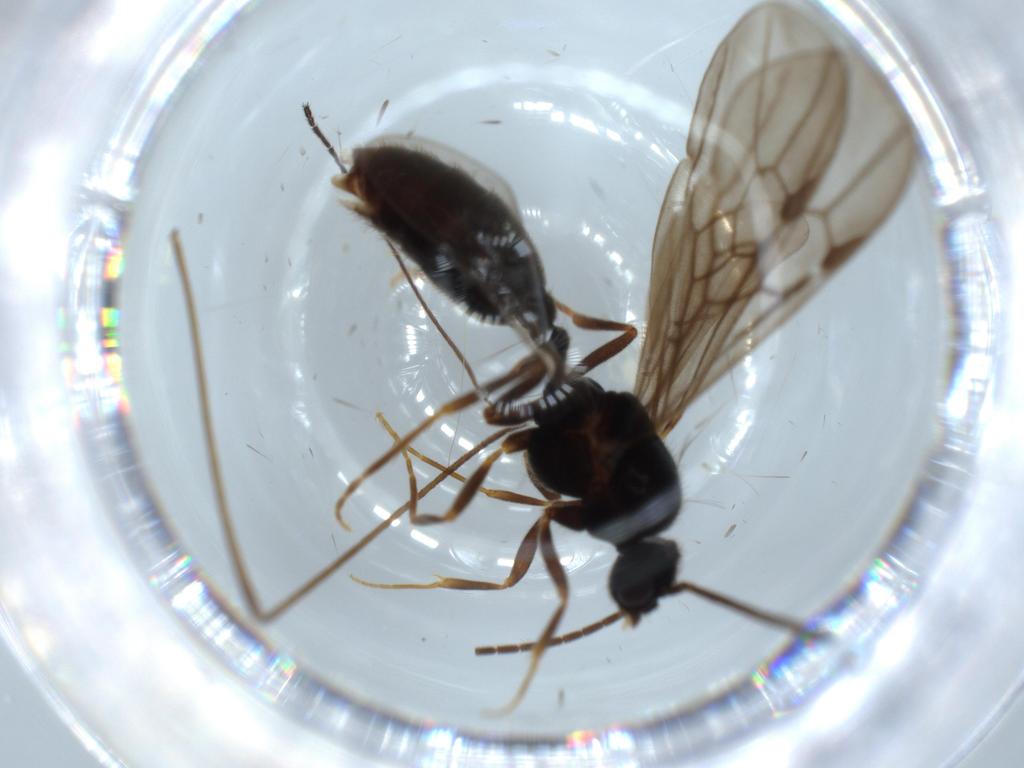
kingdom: Animalia
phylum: Arthropoda
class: Insecta
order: Hymenoptera
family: Formicidae
